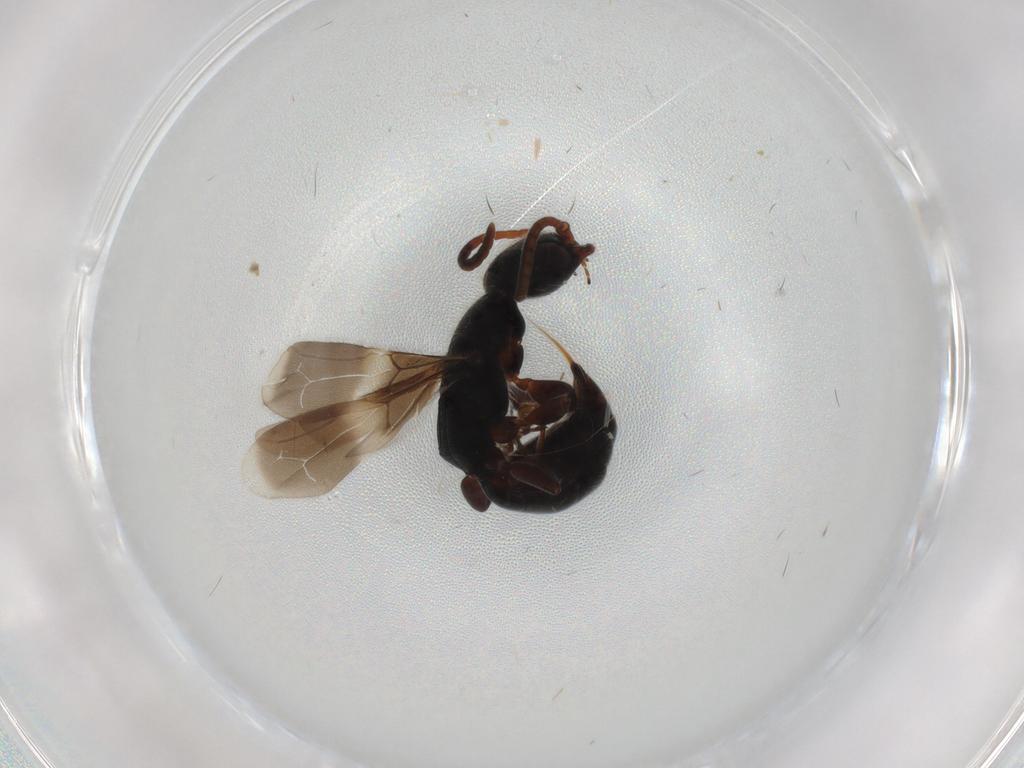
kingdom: Animalia
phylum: Arthropoda
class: Insecta
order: Hymenoptera
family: Bethylidae
